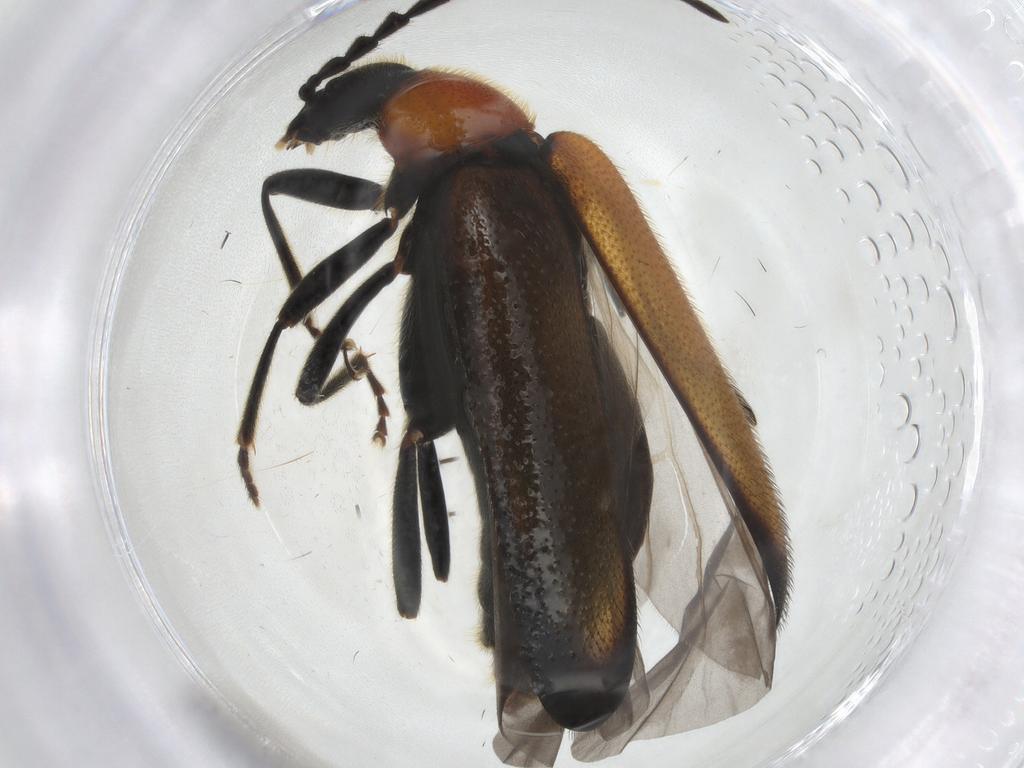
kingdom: Animalia
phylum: Arthropoda
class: Insecta
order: Coleoptera
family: Pyrochroidae
